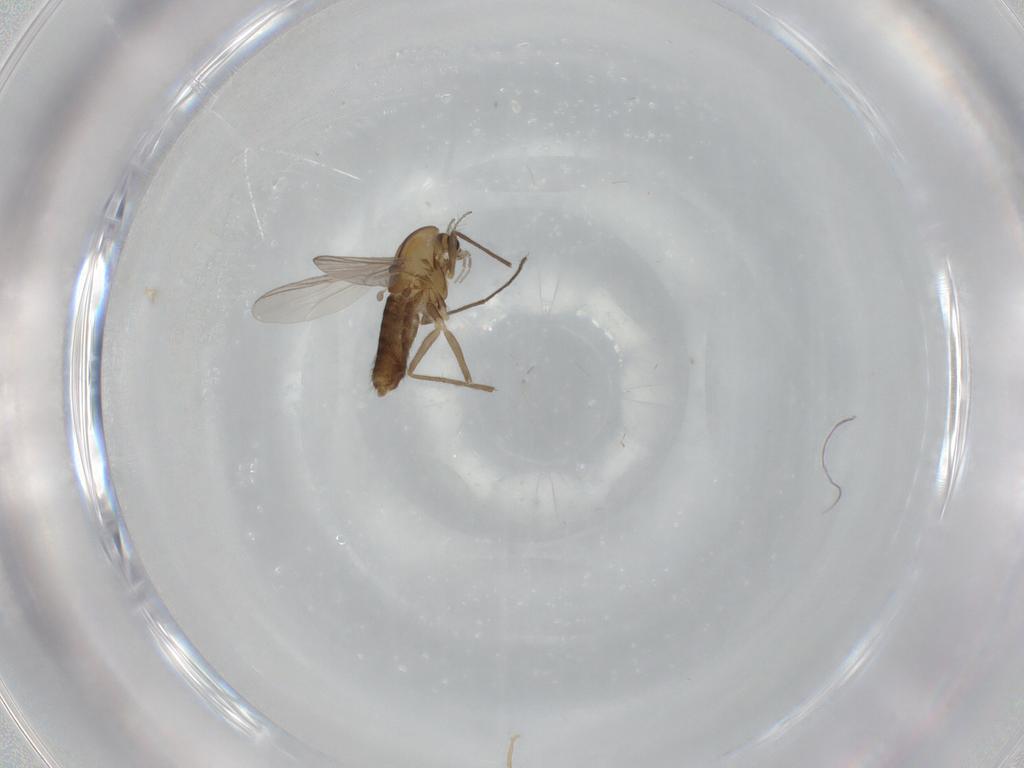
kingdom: Animalia
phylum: Arthropoda
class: Insecta
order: Diptera
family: Chironomidae
